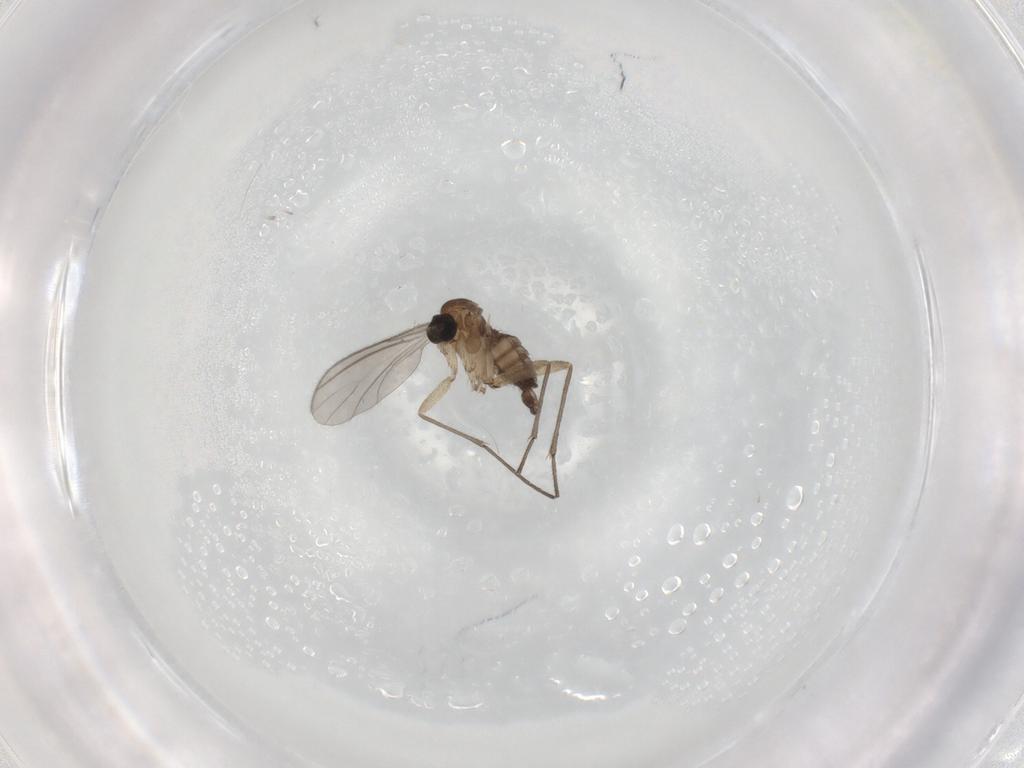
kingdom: Animalia
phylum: Arthropoda
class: Insecta
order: Diptera
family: Sciaridae
